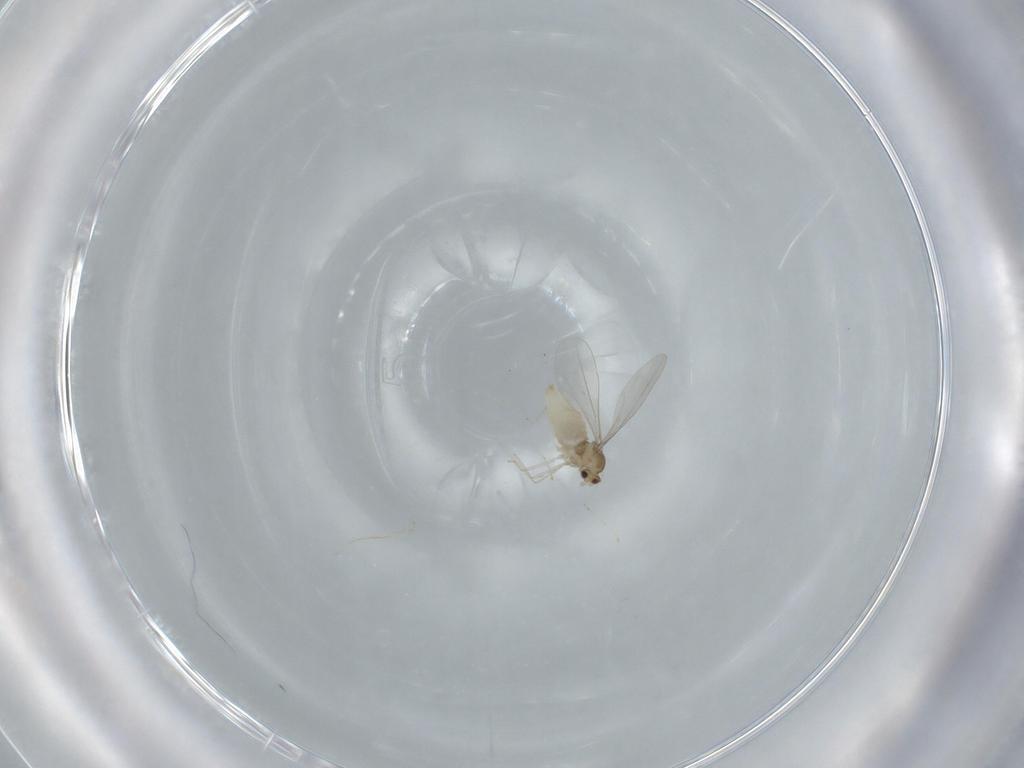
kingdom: Animalia
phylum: Arthropoda
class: Insecta
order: Diptera
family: Cecidomyiidae
